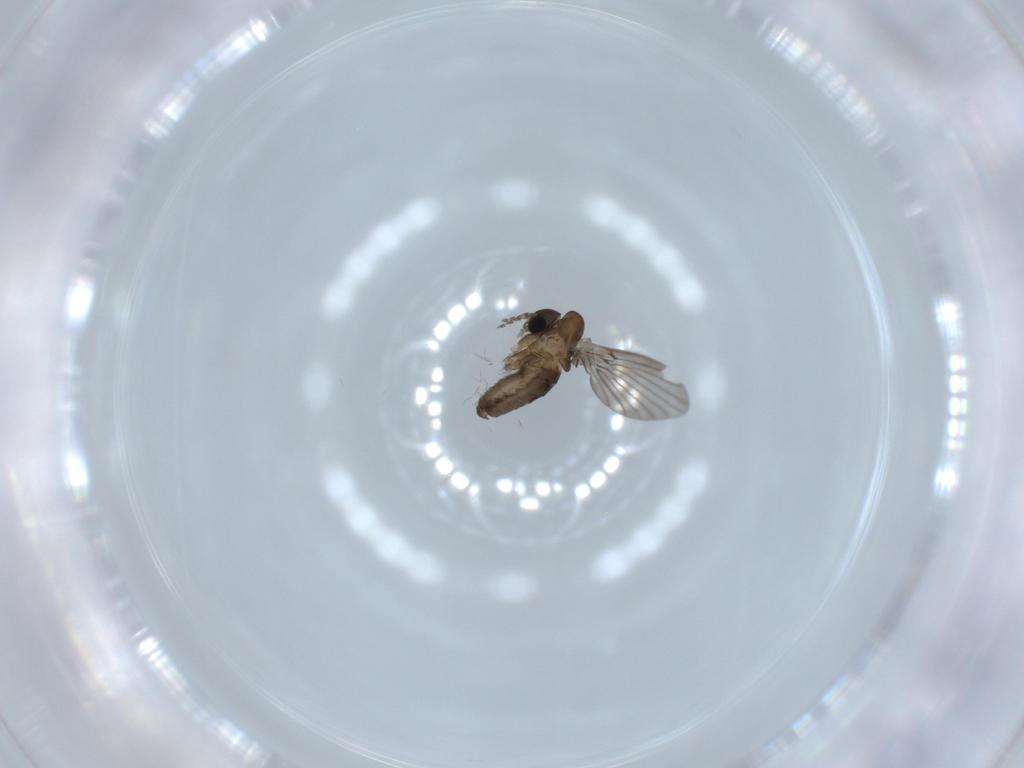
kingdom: Animalia
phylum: Arthropoda
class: Insecta
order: Diptera
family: Psychodidae
